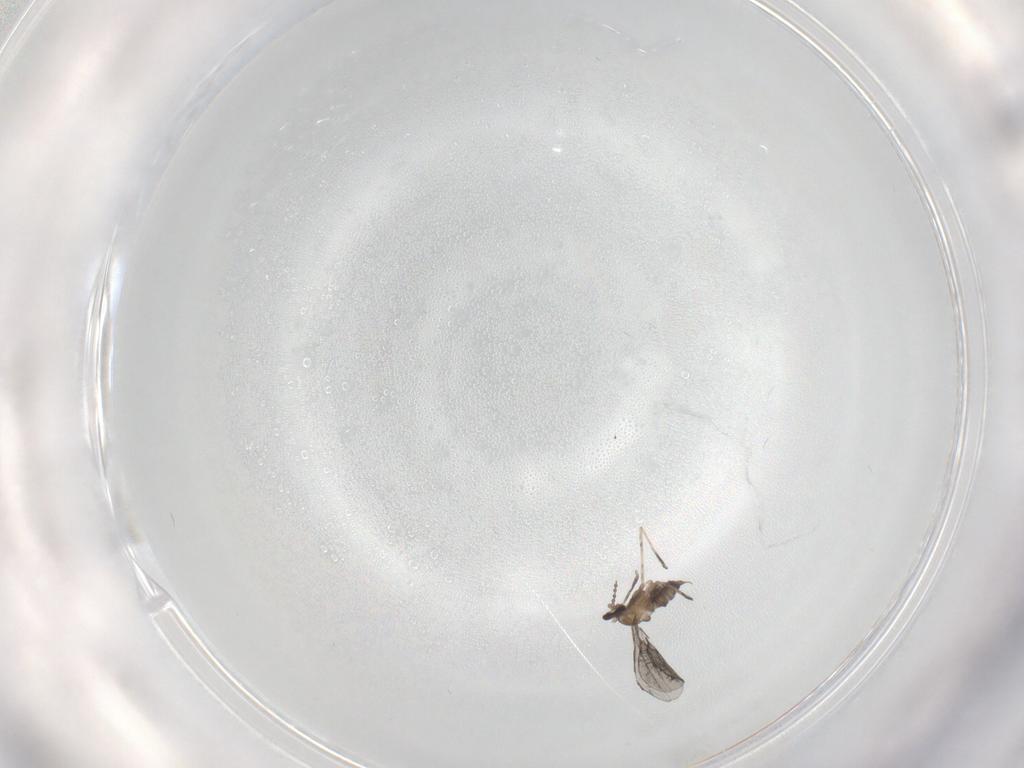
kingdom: Animalia
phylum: Arthropoda
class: Insecta
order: Diptera
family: Cecidomyiidae
